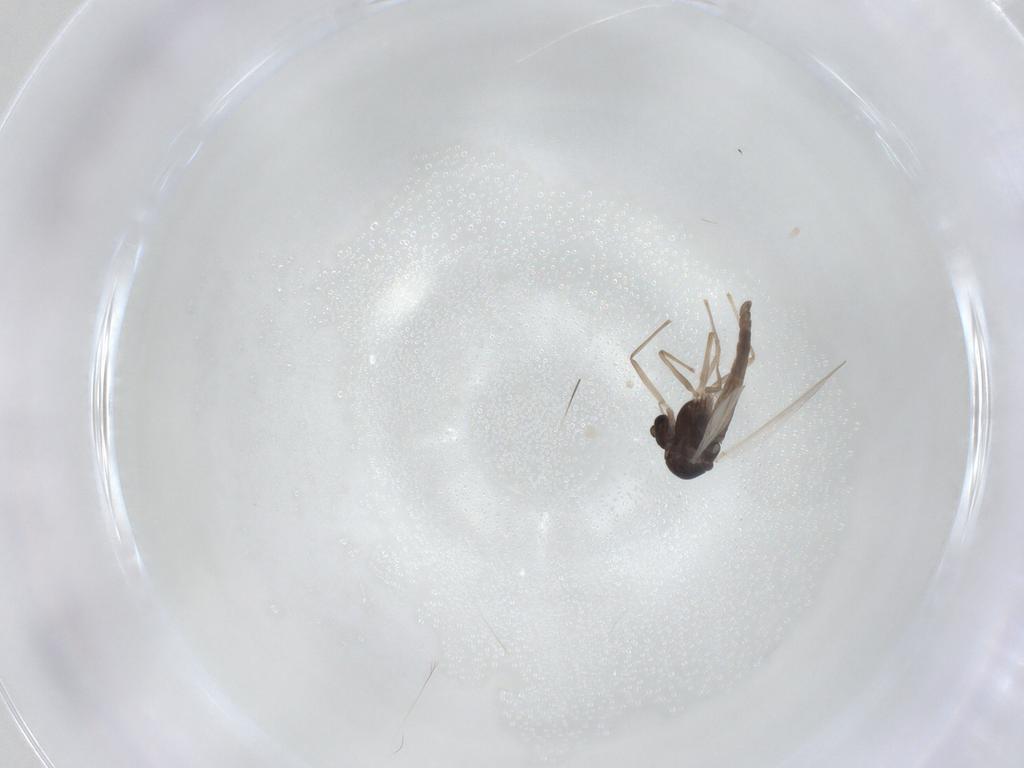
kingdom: Animalia
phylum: Arthropoda
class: Insecta
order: Diptera
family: Chironomidae
